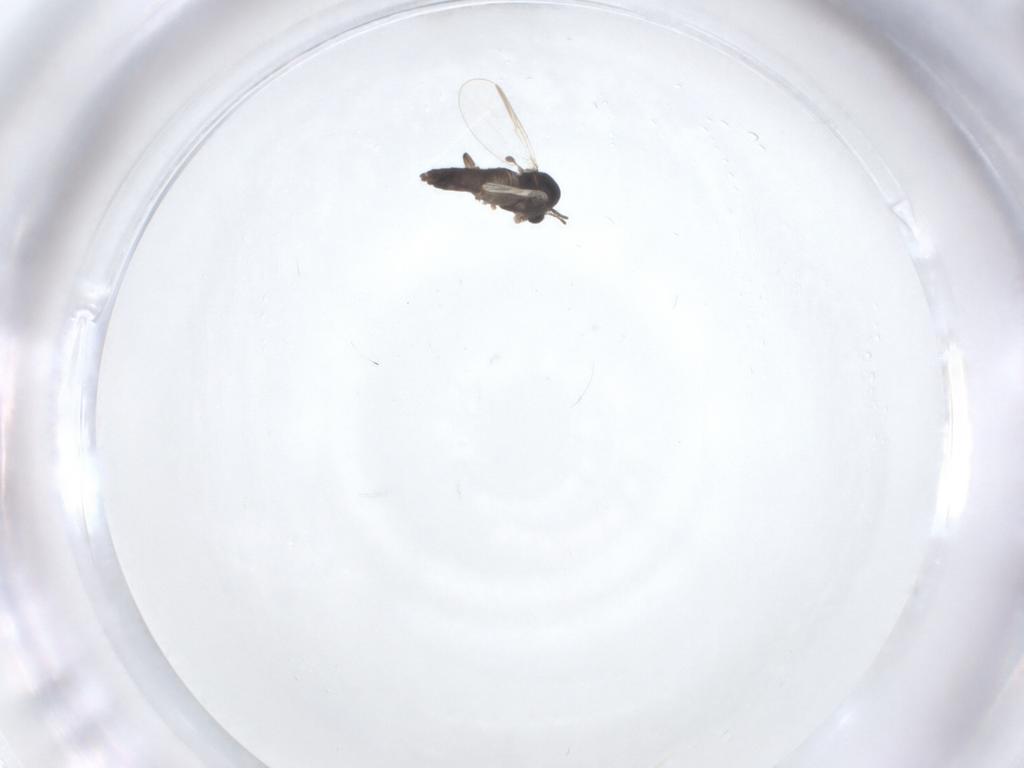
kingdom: Animalia
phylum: Arthropoda
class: Insecta
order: Diptera
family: Chironomidae
